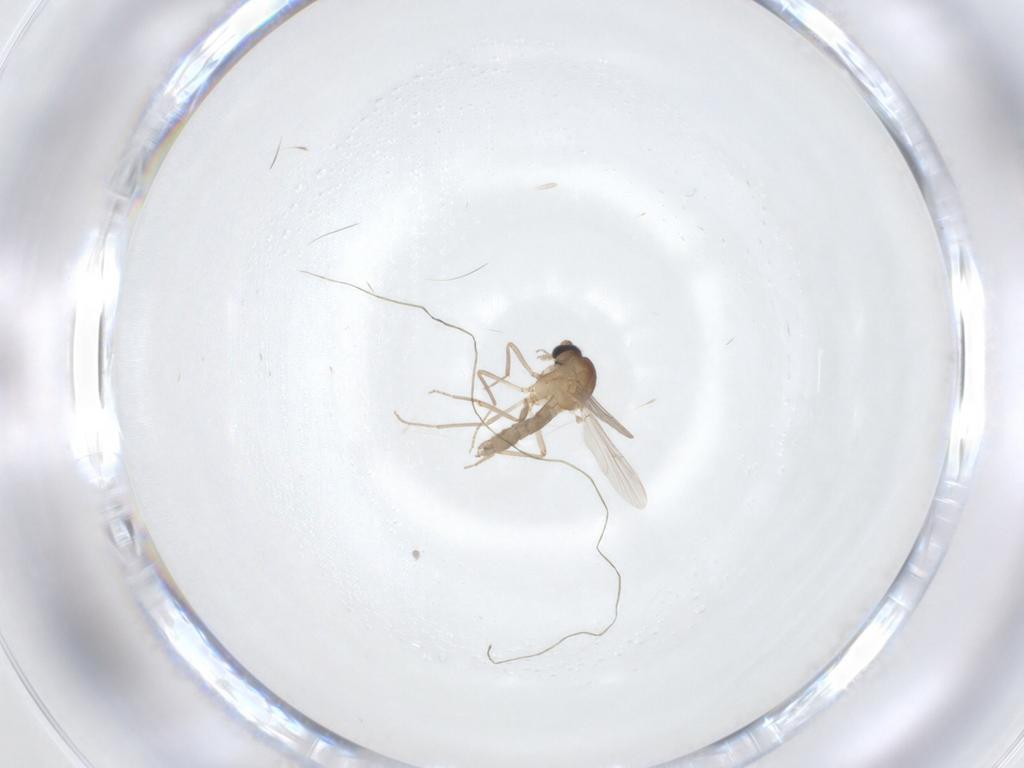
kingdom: Animalia
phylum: Arthropoda
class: Insecta
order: Diptera
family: Ceratopogonidae
